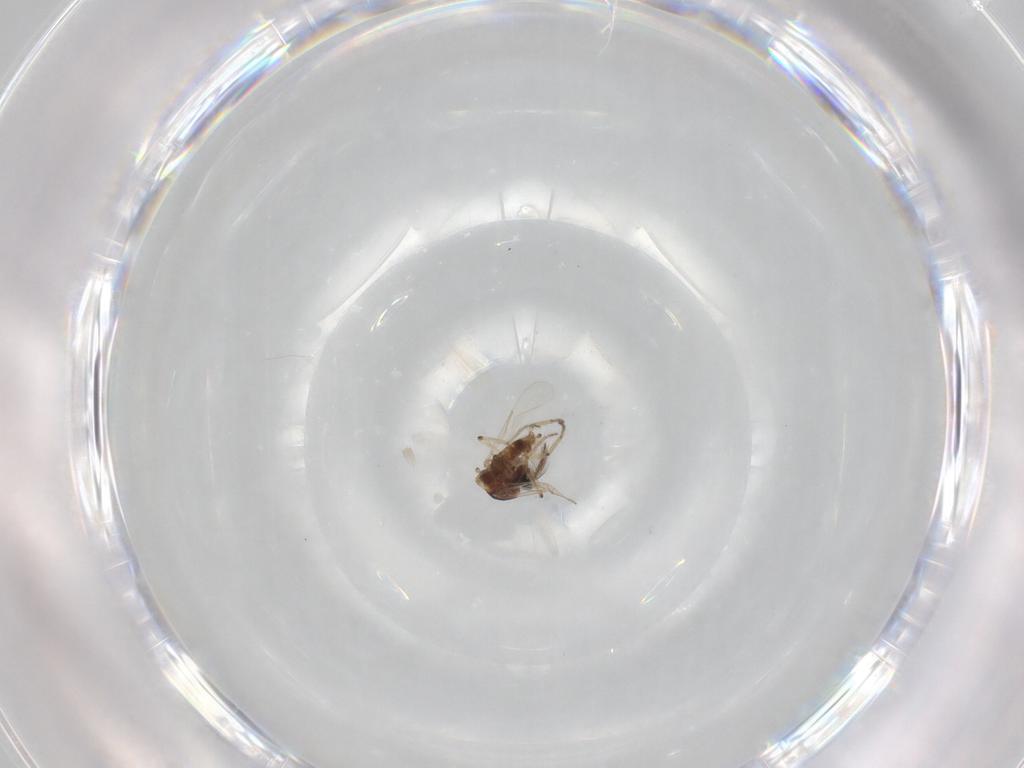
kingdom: Animalia
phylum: Arthropoda
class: Insecta
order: Diptera
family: Ceratopogonidae
